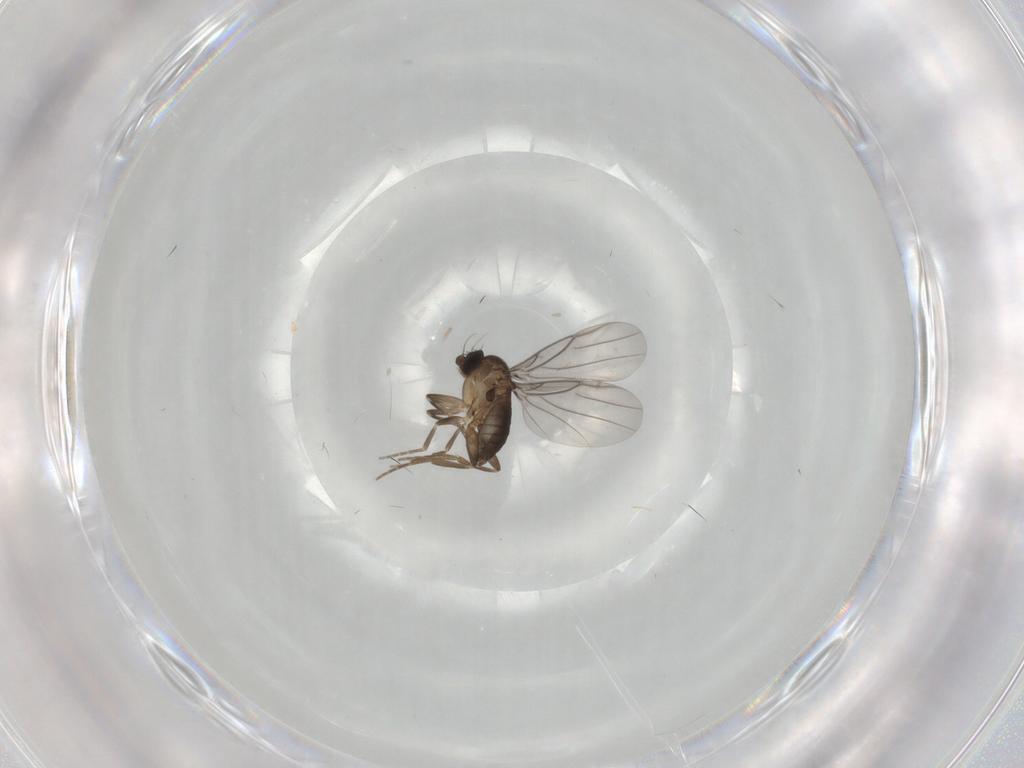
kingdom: Animalia
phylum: Arthropoda
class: Insecta
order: Diptera
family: Phoridae
